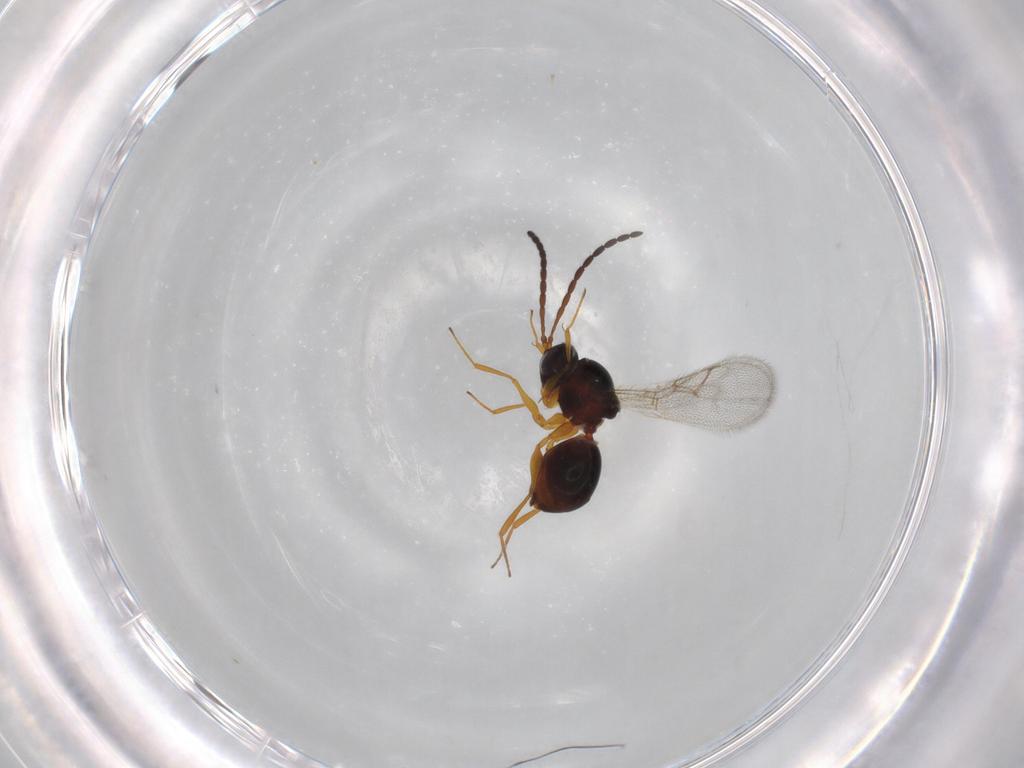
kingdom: Animalia
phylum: Arthropoda
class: Insecta
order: Hymenoptera
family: Figitidae
